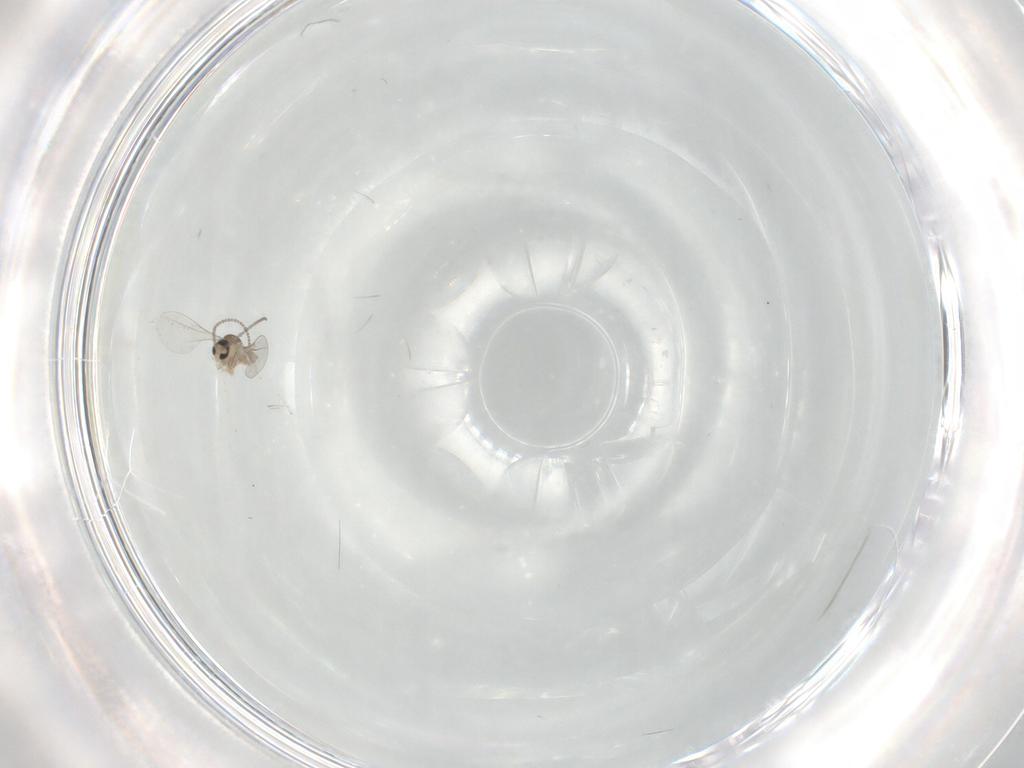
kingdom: Animalia
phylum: Arthropoda
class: Insecta
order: Diptera
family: Cecidomyiidae
